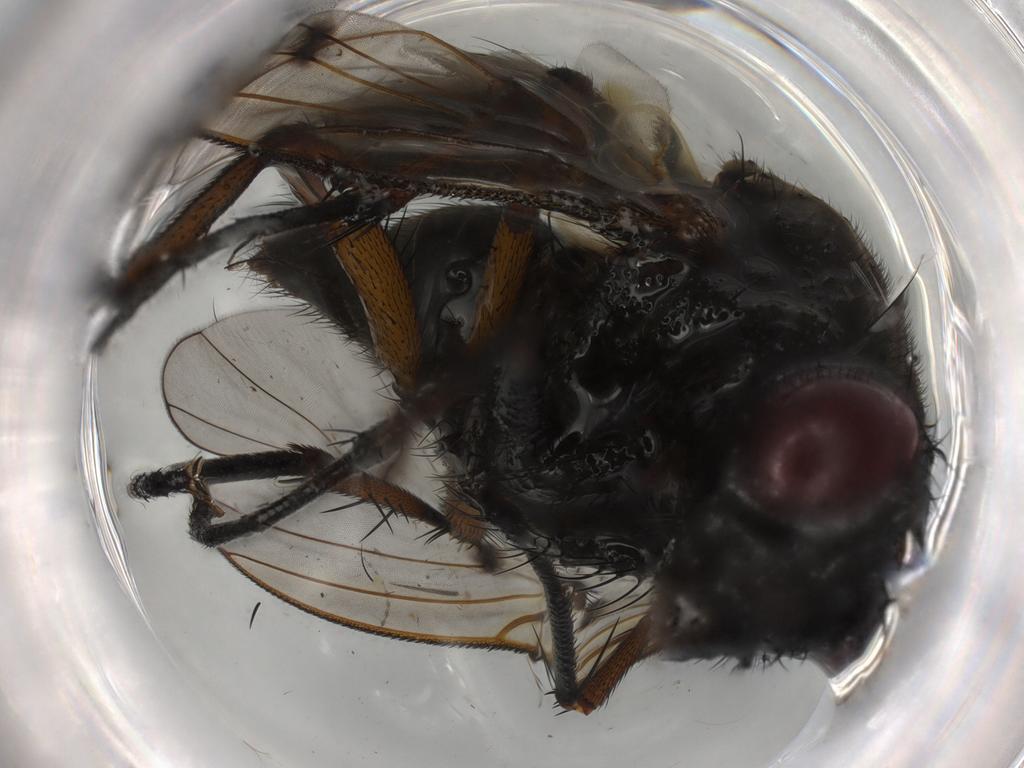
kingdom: Animalia
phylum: Arthropoda
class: Insecta
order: Diptera
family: Muscidae
